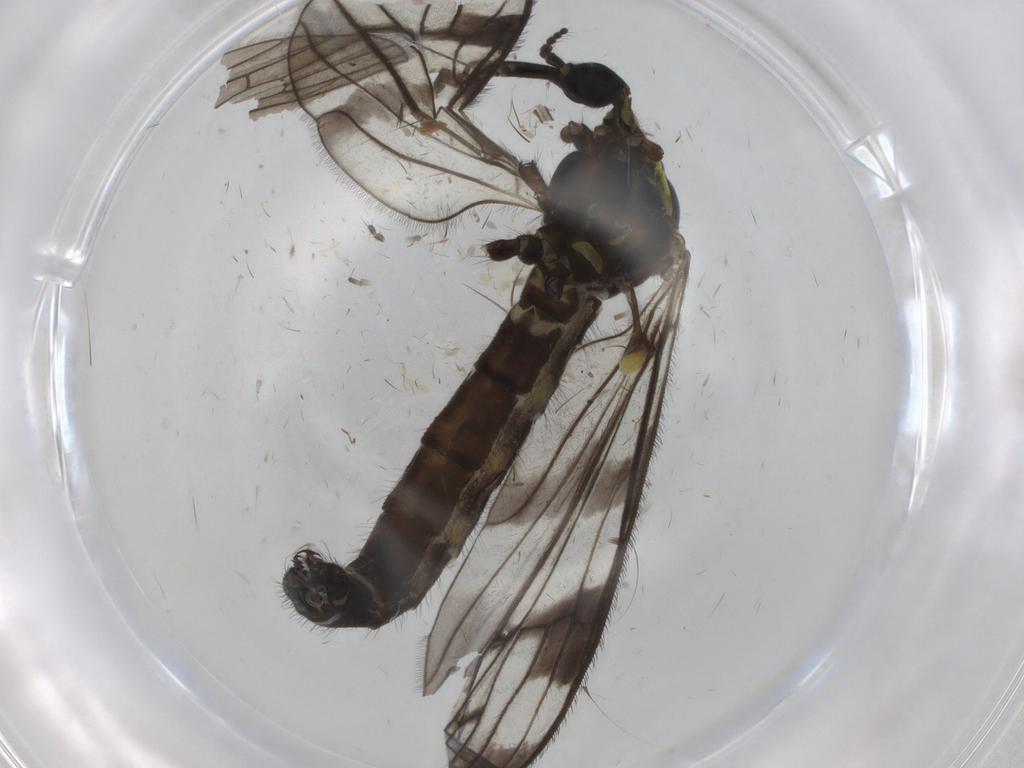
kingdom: Animalia
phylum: Arthropoda
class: Insecta
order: Diptera
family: Limoniidae
